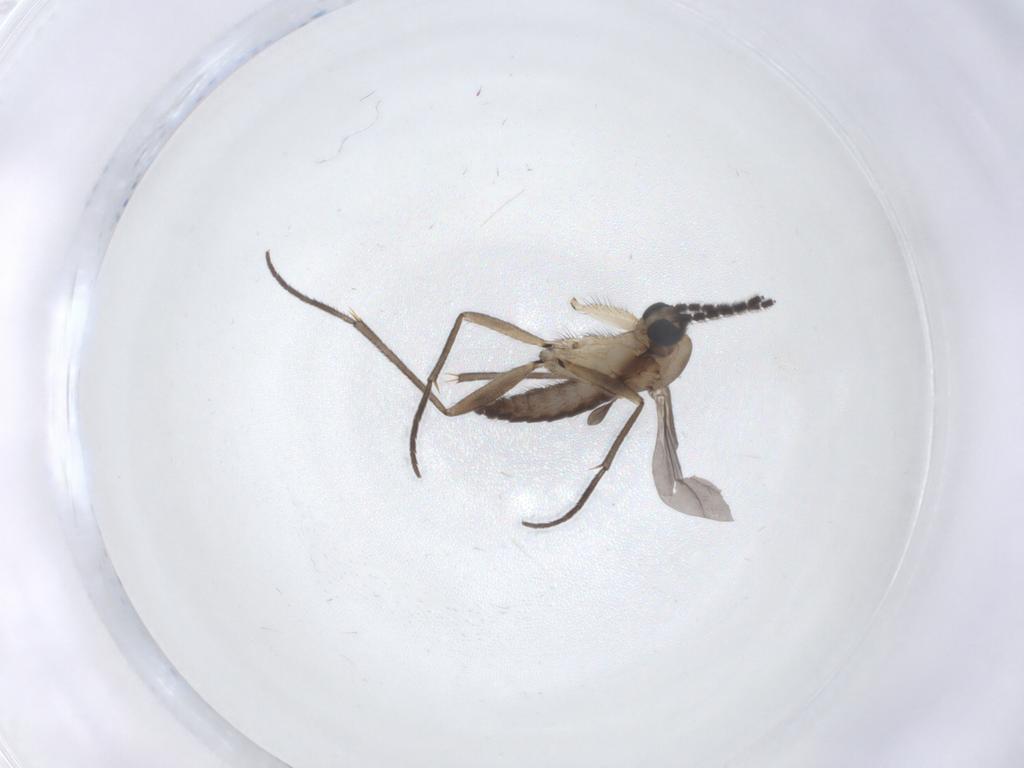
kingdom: Animalia
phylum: Arthropoda
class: Insecta
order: Diptera
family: Sciaridae
